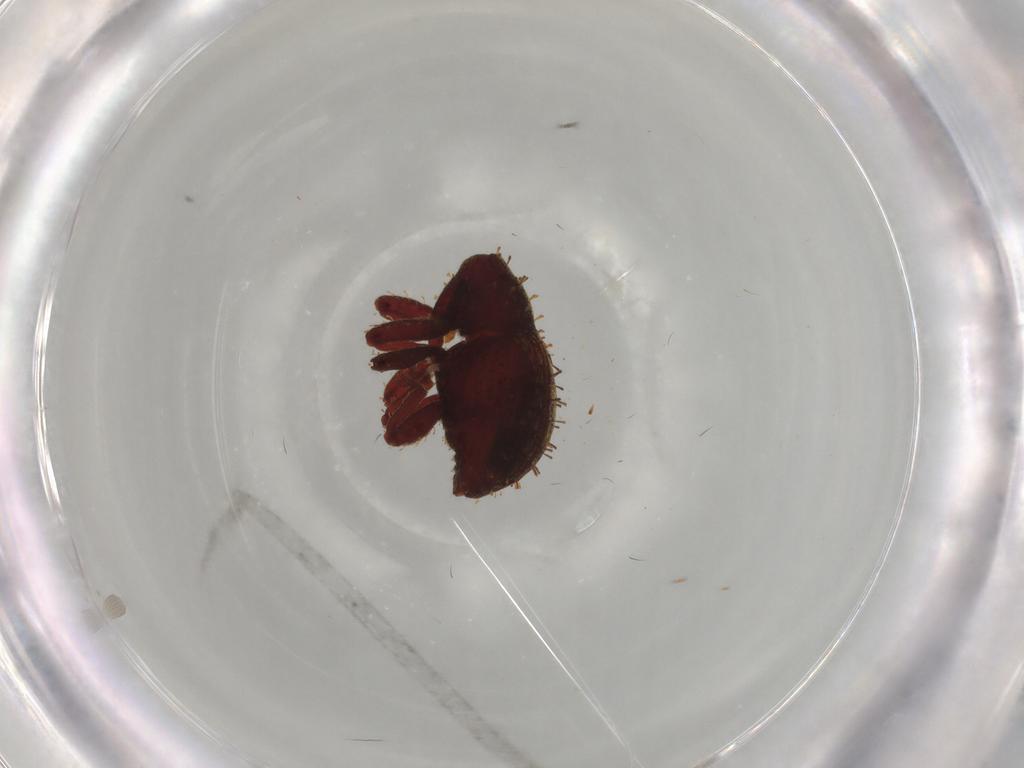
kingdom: Animalia
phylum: Arthropoda
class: Insecta
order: Coleoptera
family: Curculionidae
